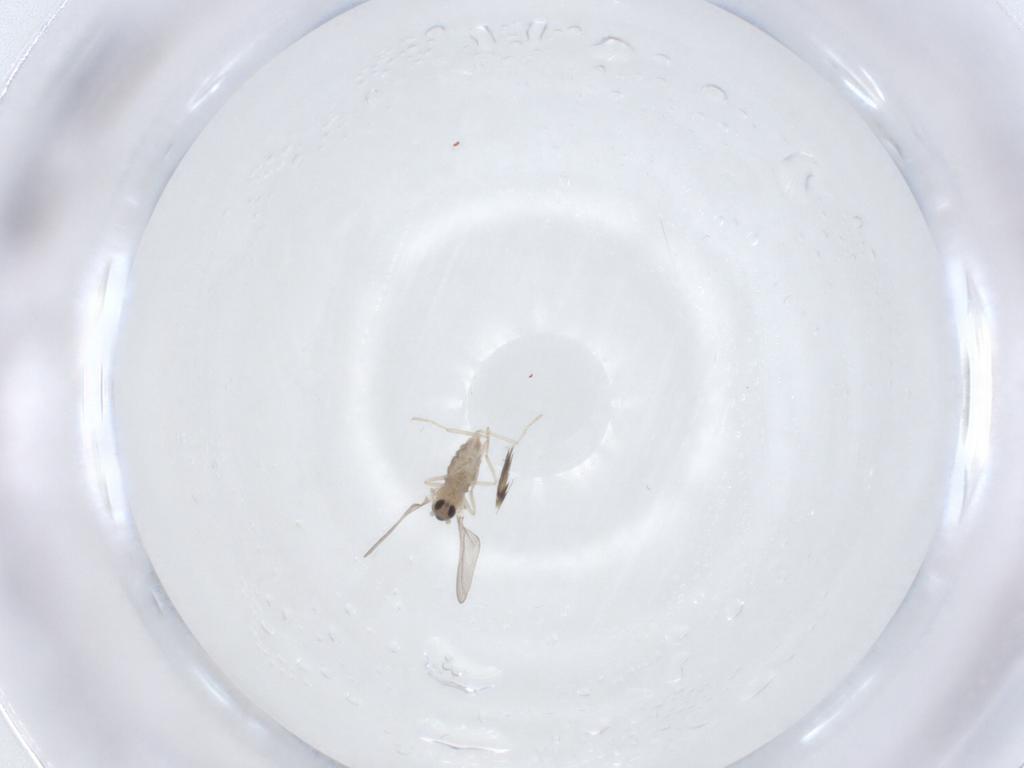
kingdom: Animalia
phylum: Arthropoda
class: Insecta
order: Diptera
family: Cecidomyiidae
